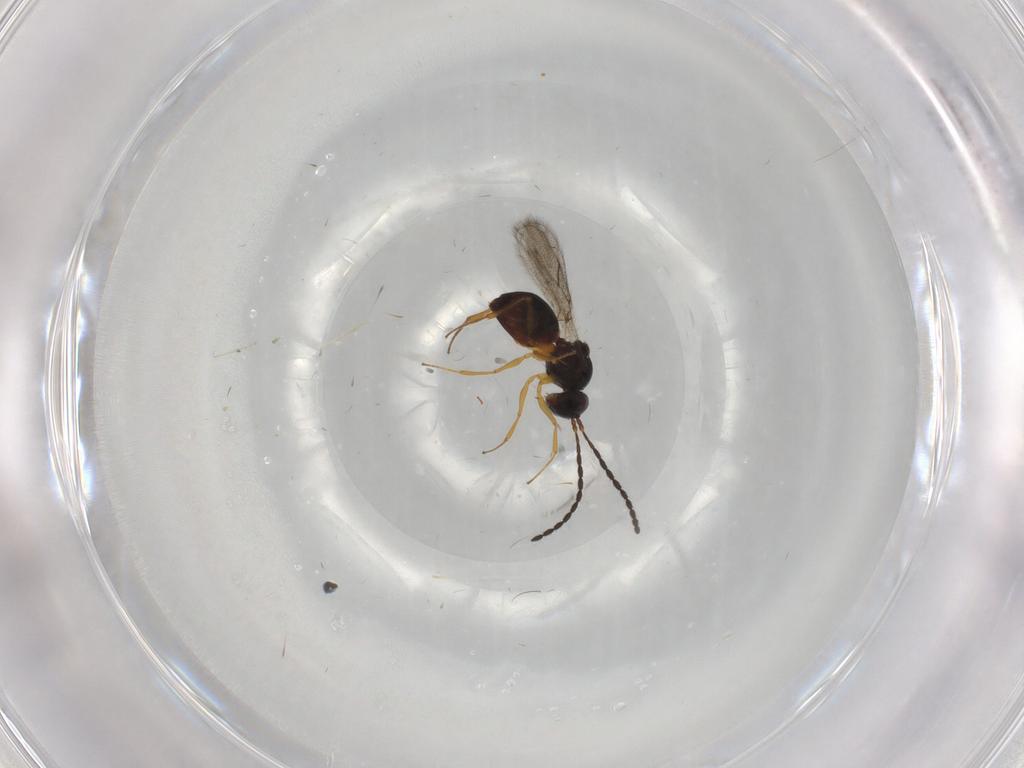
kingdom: Animalia
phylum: Arthropoda
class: Insecta
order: Hymenoptera
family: Figitidae
